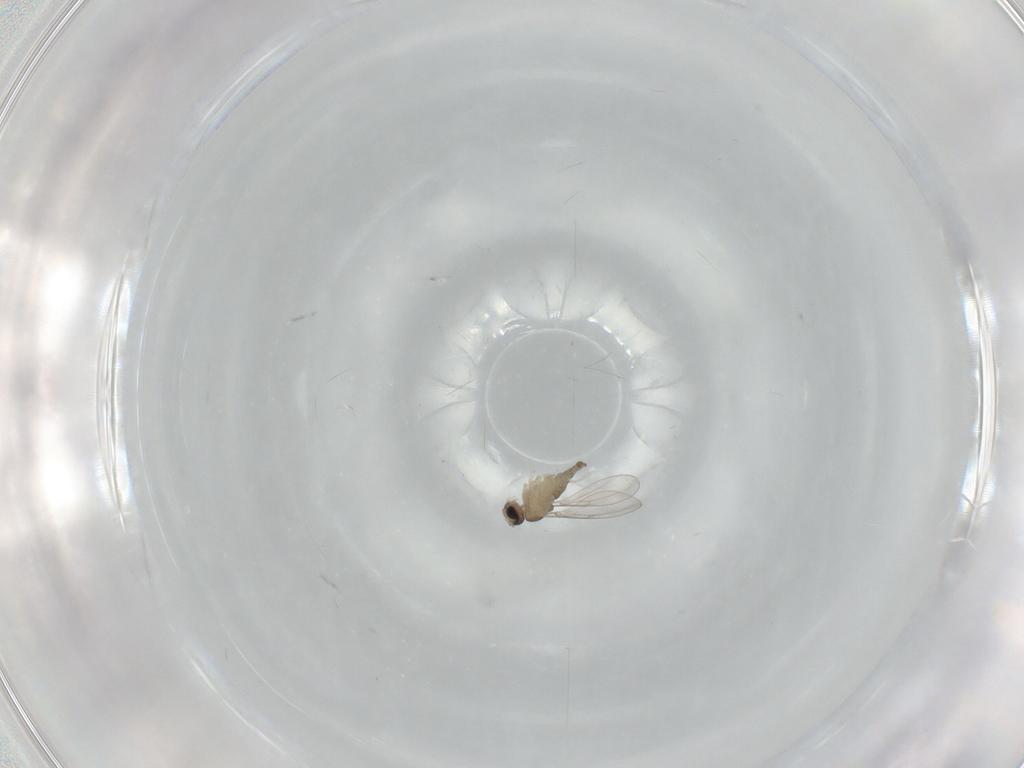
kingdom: Animalia
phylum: Arthropoda
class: Insecta
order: Diptera
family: Cecidomyiidae
